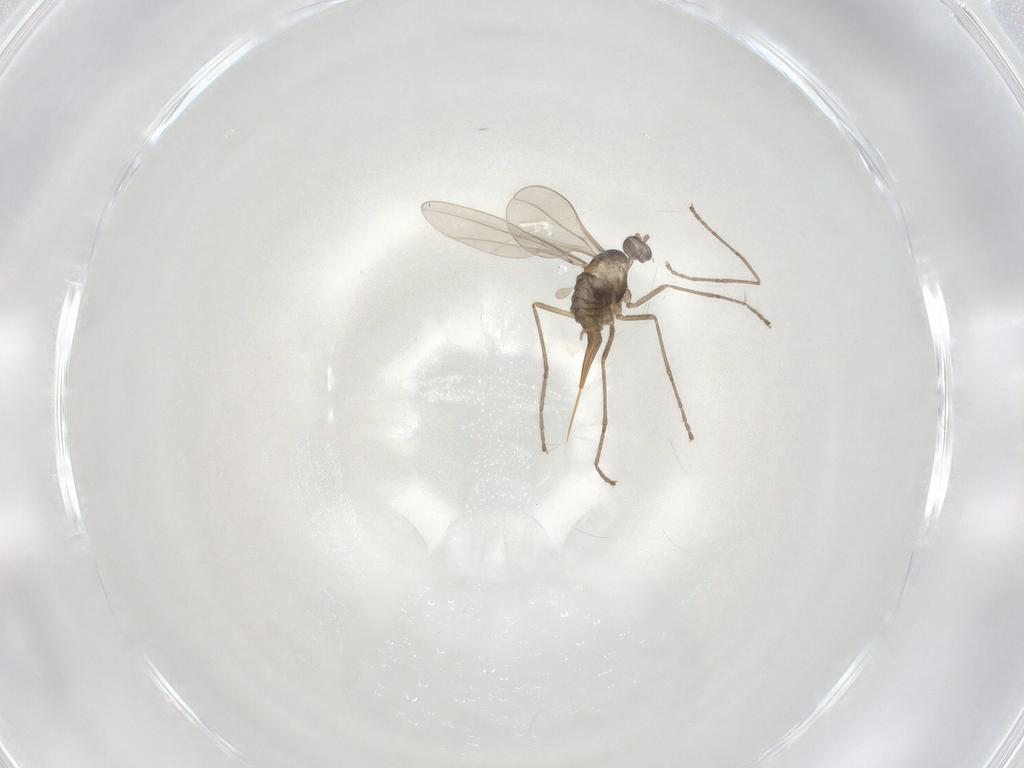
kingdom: Animalia
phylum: Arthropoda
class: Insecta
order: Diptera
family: Cecidomyiidae
